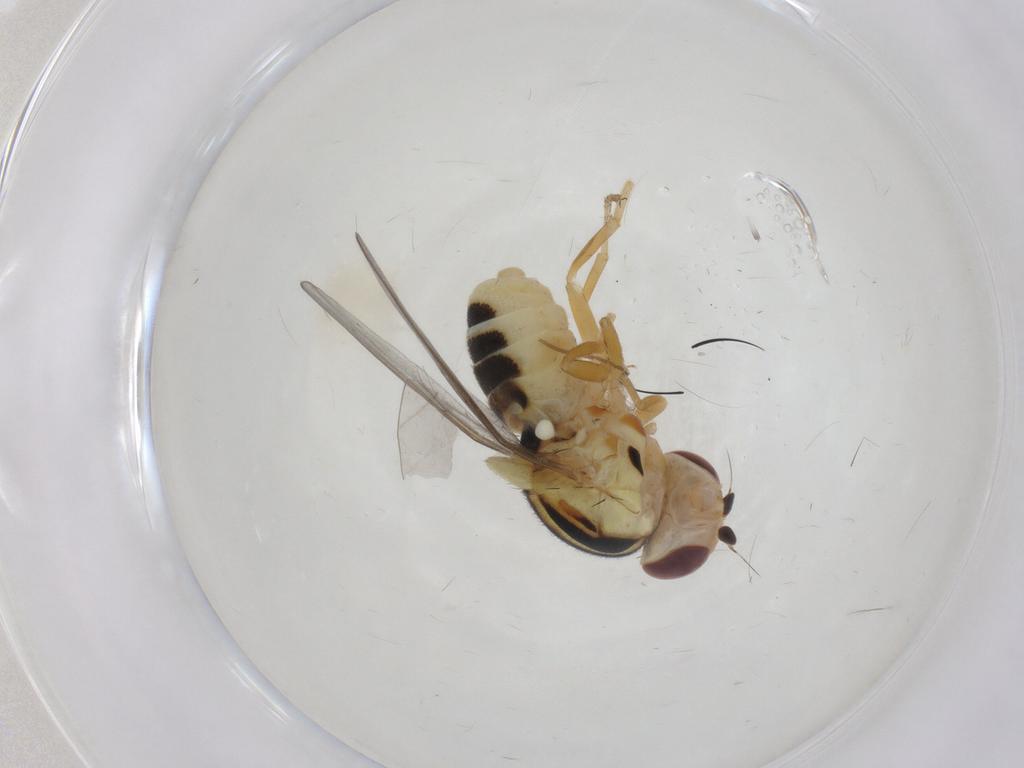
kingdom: Animalia
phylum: Arthropoda
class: Insecta
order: Diptera
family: Chloropidae
